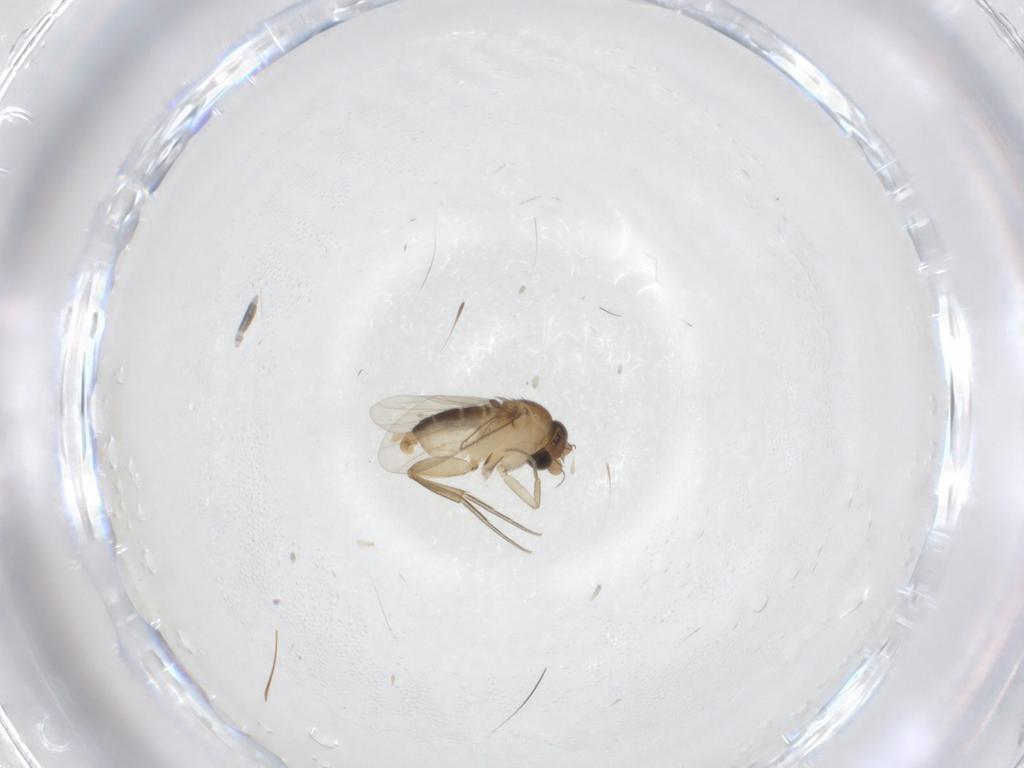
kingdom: Animalia
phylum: Arthropoda
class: Insecta
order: Diptera
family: Phoridae
